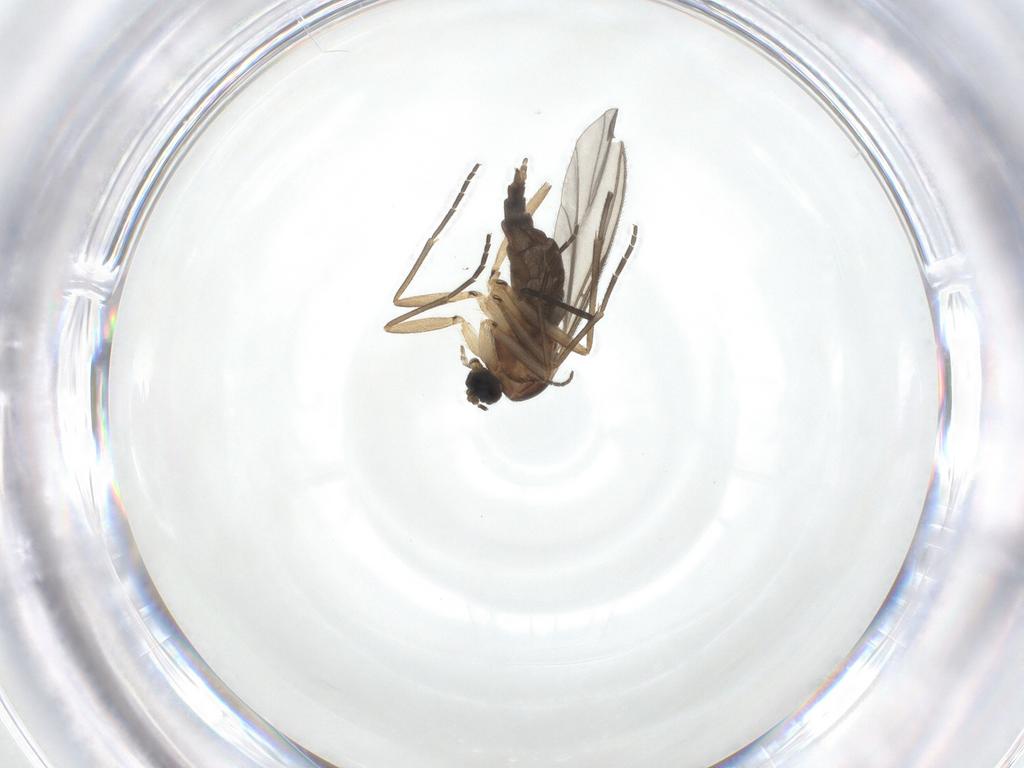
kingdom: Animalia
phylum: Arthropoda
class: Insecta
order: Diptera
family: Sciaridae
